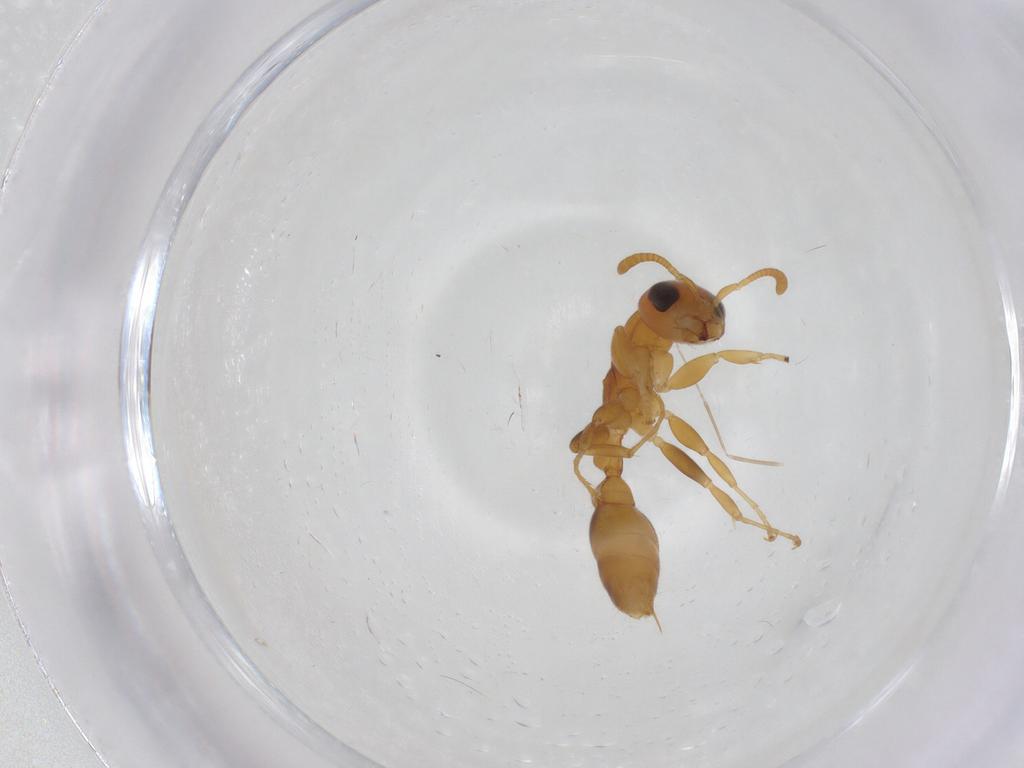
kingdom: Animalia
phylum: Arthropoda
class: Insecta
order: Hymenoptera
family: Formicidae
